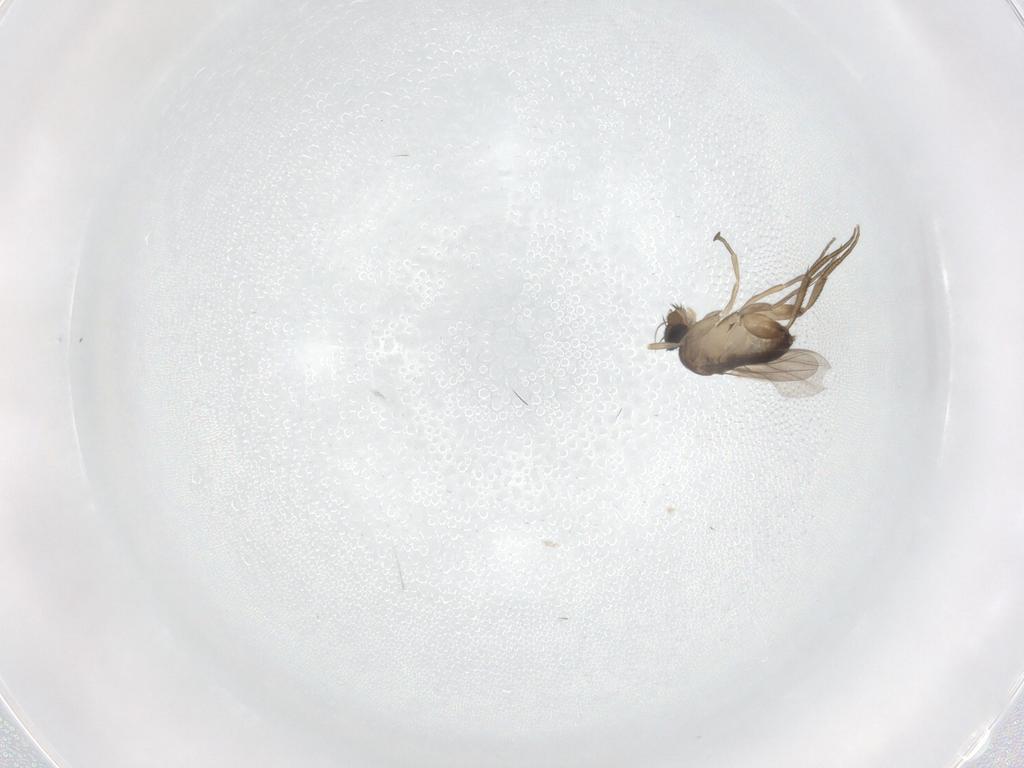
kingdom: Animalia
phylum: Arthropoda
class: Insecta
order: Diptera
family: Phoridae
